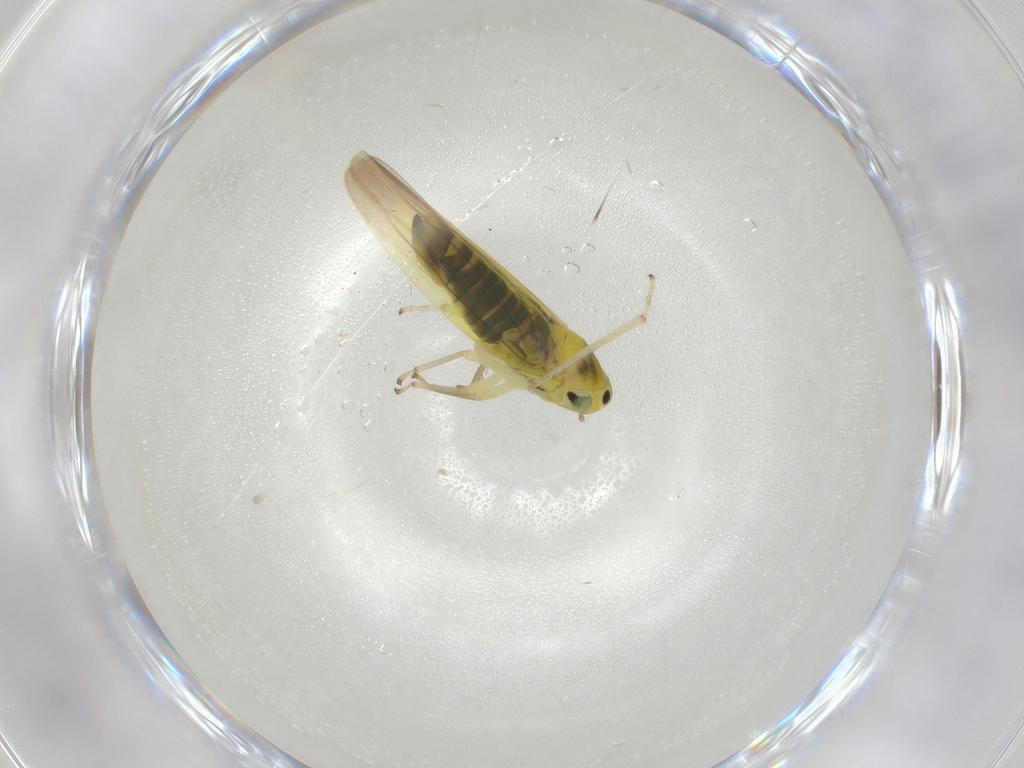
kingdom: Animalia
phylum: Arthropoda
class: Insecta
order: Hemiptera
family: Cicadellidae
